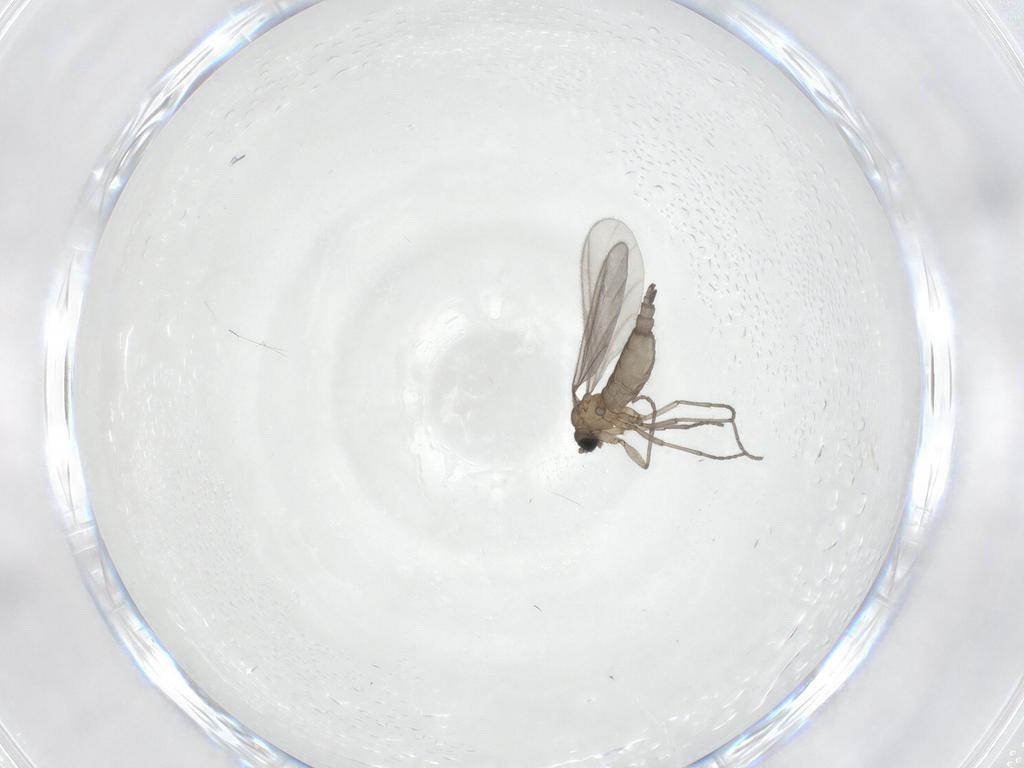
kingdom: Animalia
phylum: Arthropoda
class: Insecta
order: Diptera
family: Sciaridae
